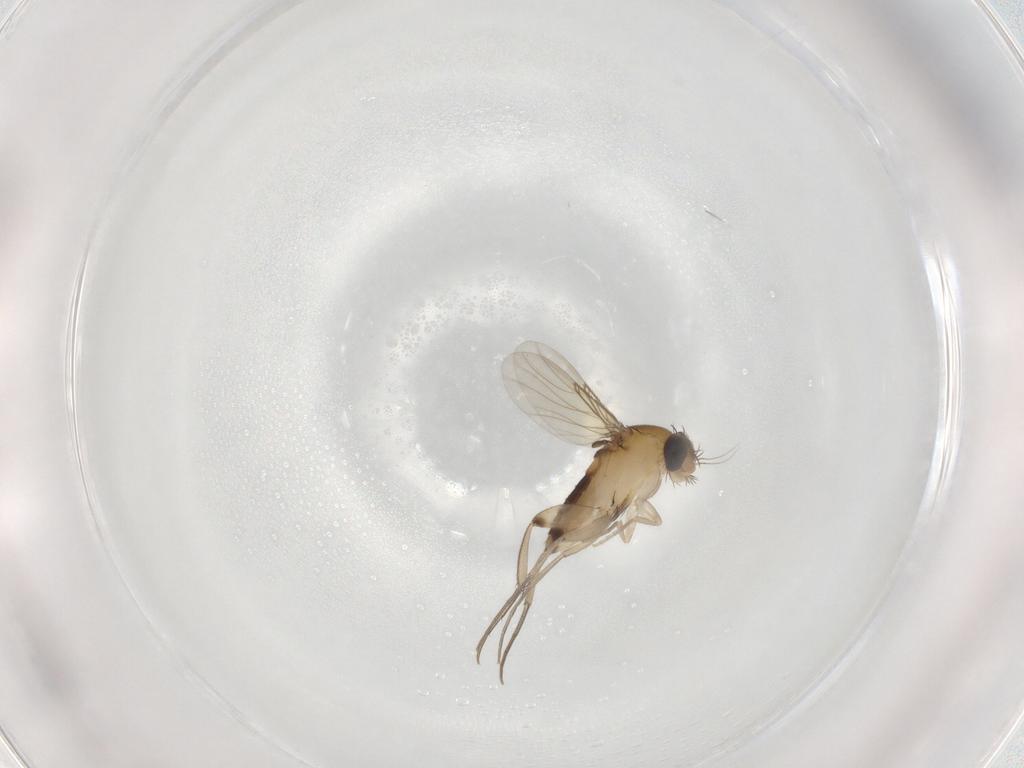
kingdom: Animalia
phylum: Arthropoda
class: Insecta
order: Diptera
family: Phoridae
